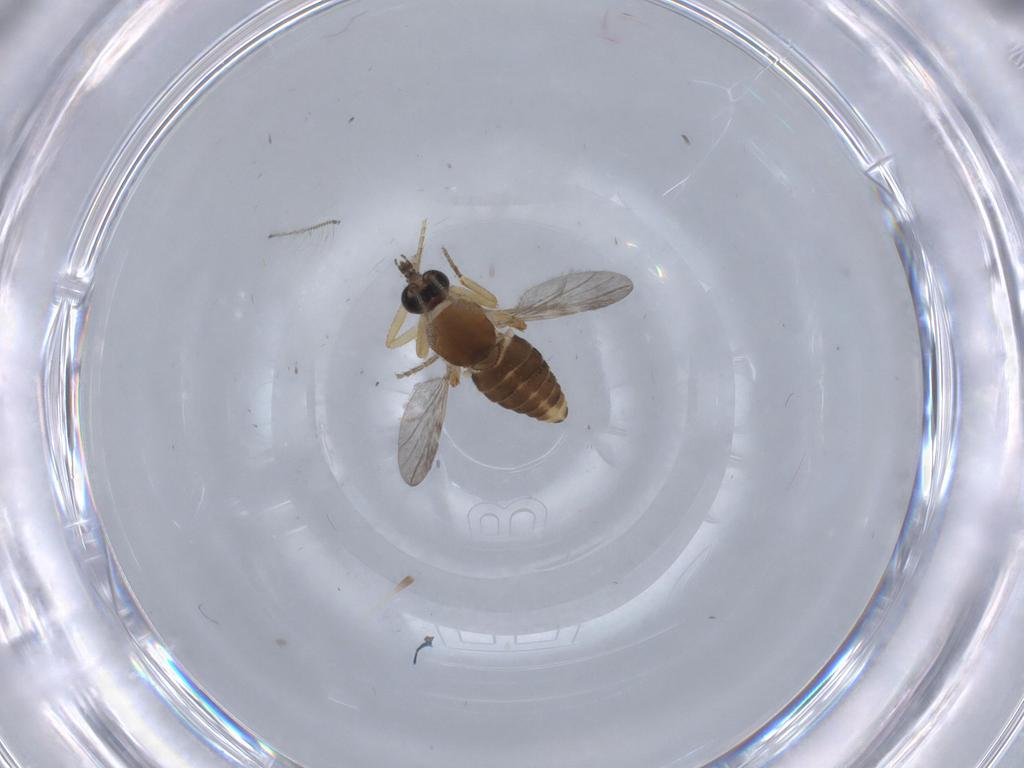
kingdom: Animalia
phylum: Arthropoda
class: Insecta
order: Diptera
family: Ceratopogonidae
